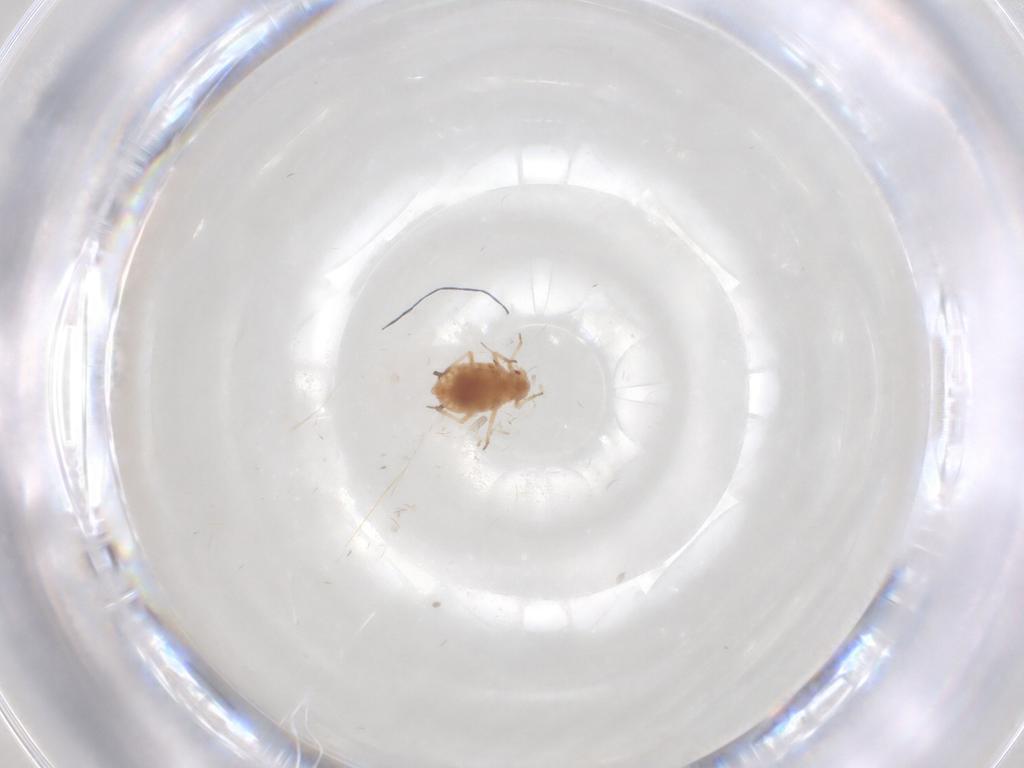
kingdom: Animalia
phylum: Arthropoda
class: Insecta
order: Hemiptera
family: Aphididae
